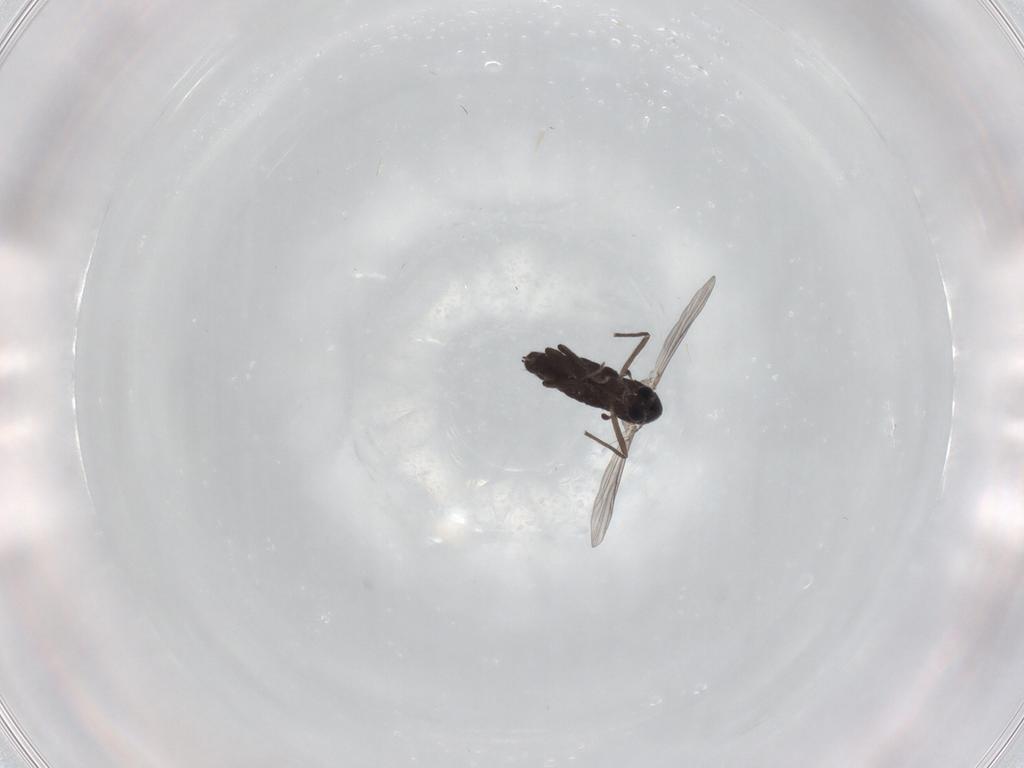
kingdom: Animalia
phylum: Arthropoda
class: Insecta
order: Diptera
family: Chironomidae
